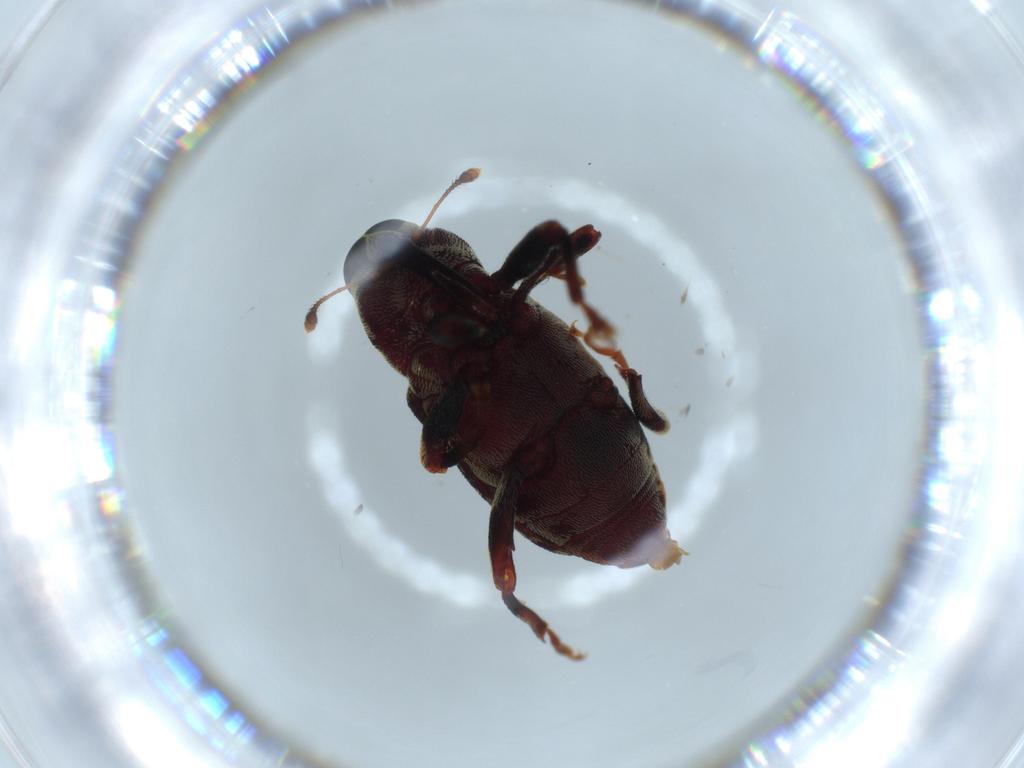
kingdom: Animalia
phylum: Arthropoda
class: Insecta
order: Coleoptera
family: Curculionidae
